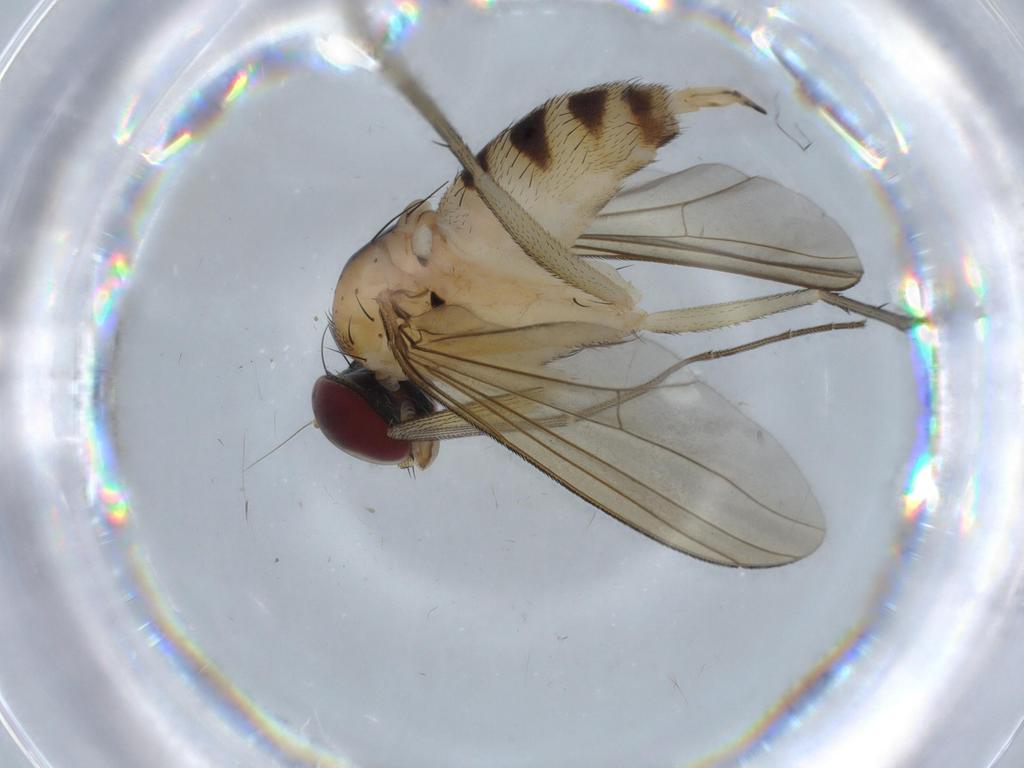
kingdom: Animalia
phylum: Arthropoda
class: Insecta
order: Diptera
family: Dolichopodidae
